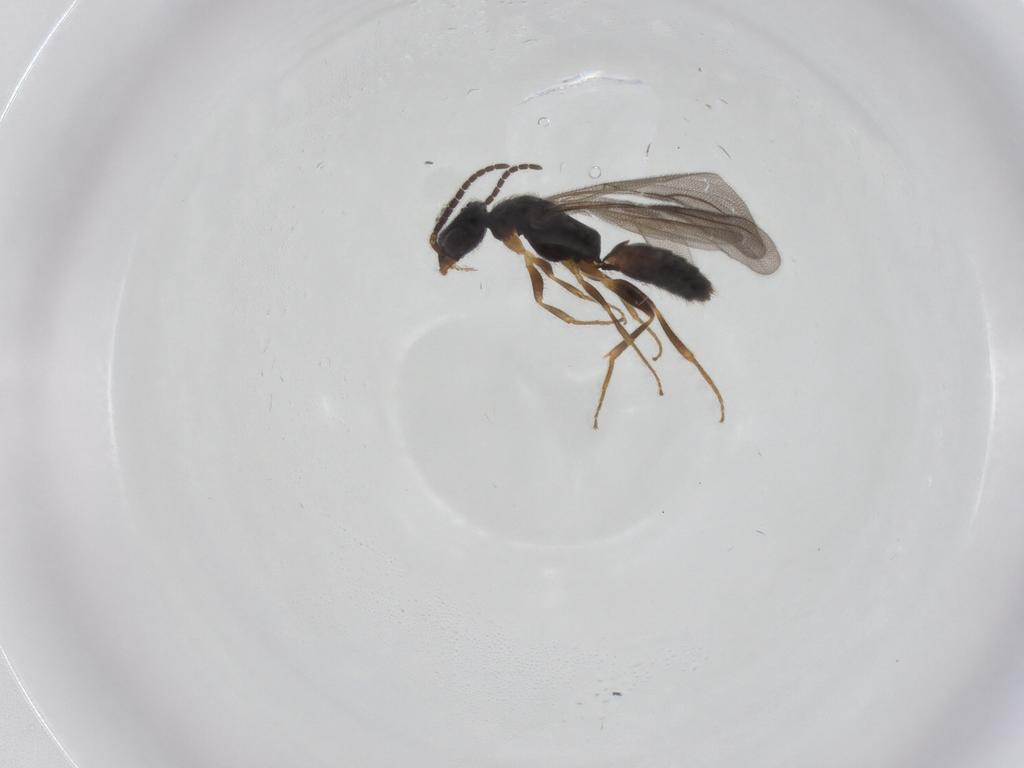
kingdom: Animalia
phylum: Arthropoda
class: Insecta
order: Hymenoptera
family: Bethylidae
